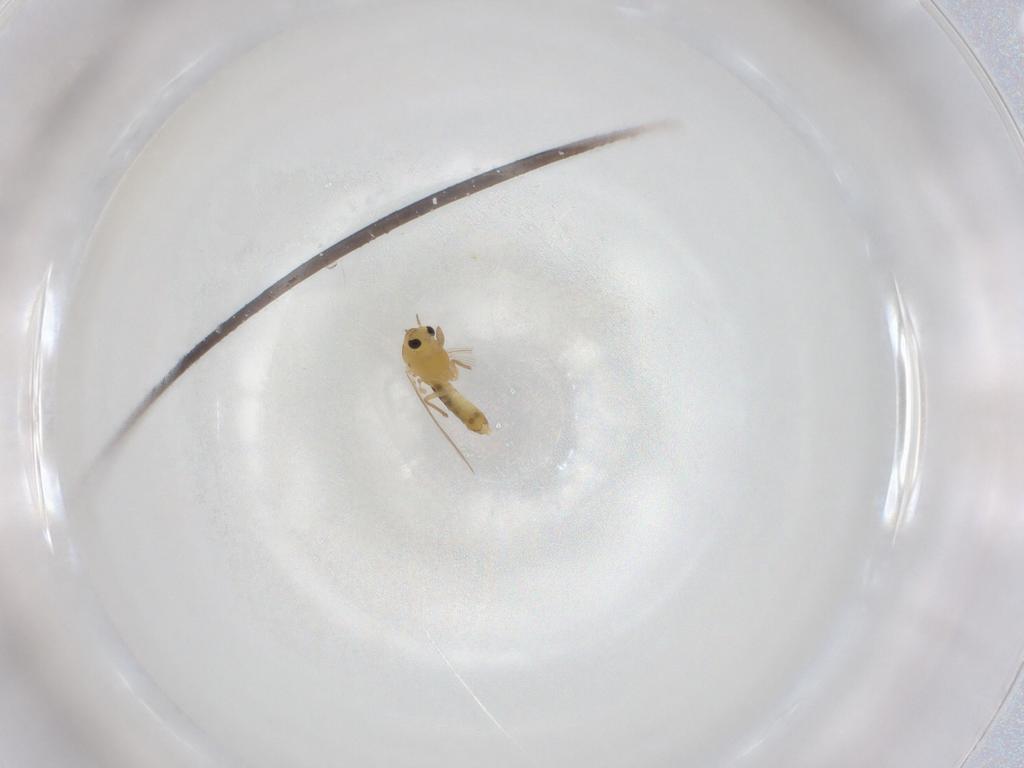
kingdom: Animalia
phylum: Arthropoda
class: Insecta
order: Diptera
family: Chironomidae
